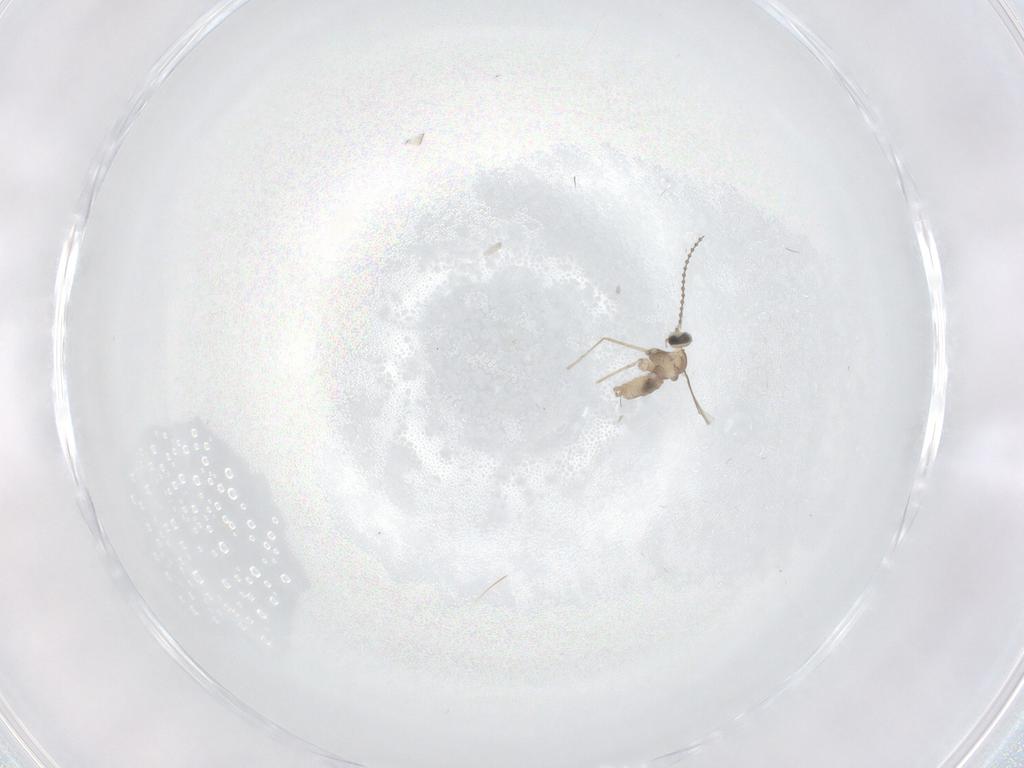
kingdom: Animalia
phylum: Arthropoda
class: Insecta
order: Diptera
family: Cecidomyiidae
